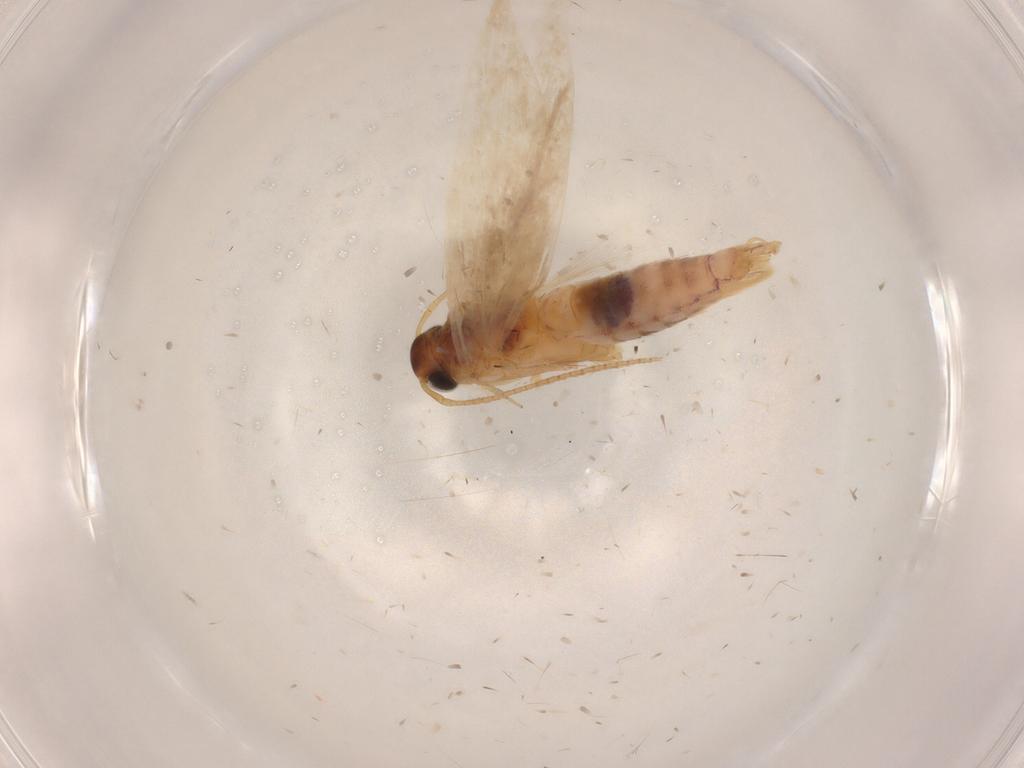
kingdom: Animalia
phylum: Arthropoda
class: Insecta
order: Lepidoptera
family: Gelechiidae
